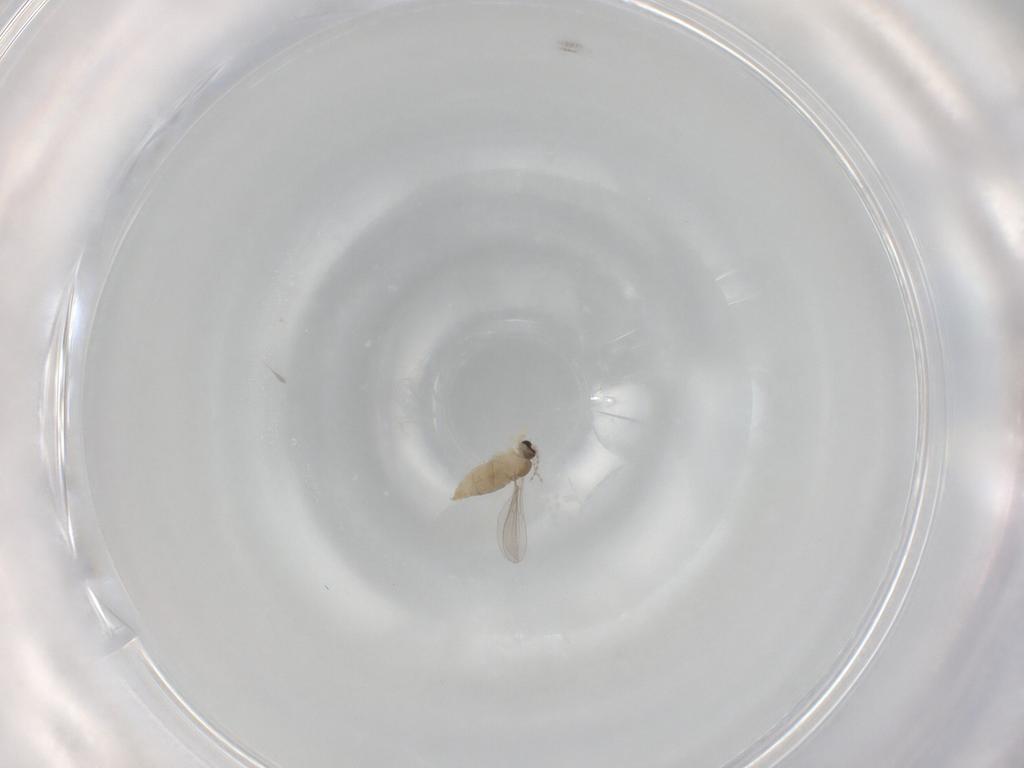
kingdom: Animalia
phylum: Arthropoda
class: Insecta
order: Diptera
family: Cecidomyiidae
